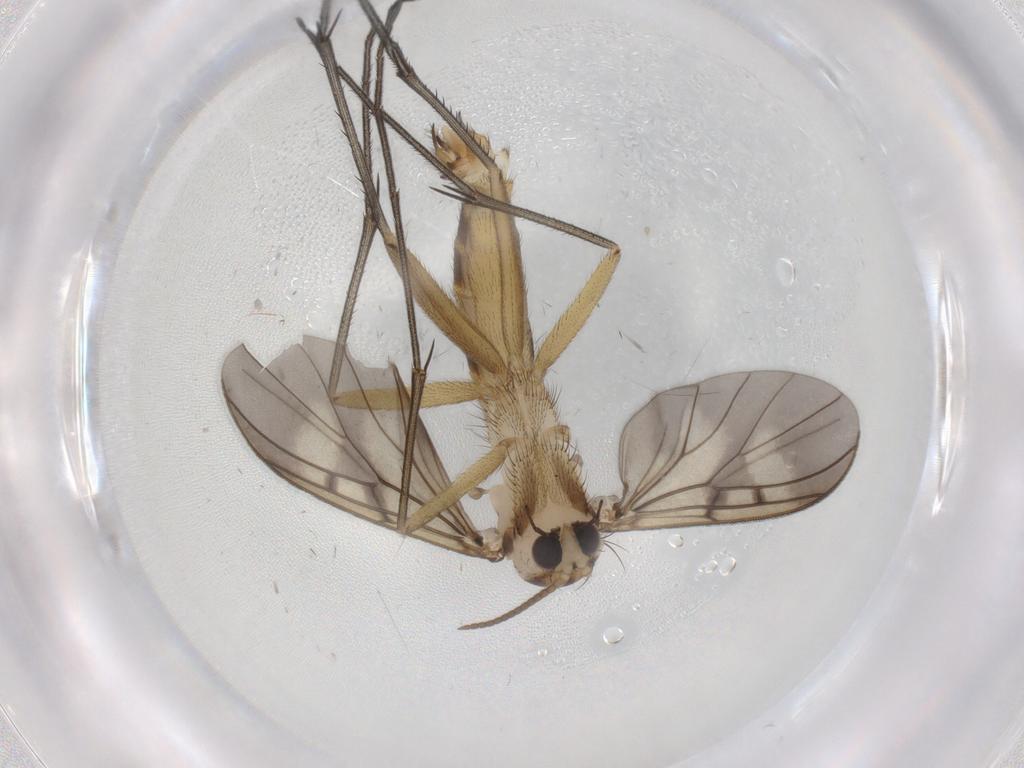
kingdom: Animalia
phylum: Arthropoda
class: Insecta
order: Diptera
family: Mycetophilidae
